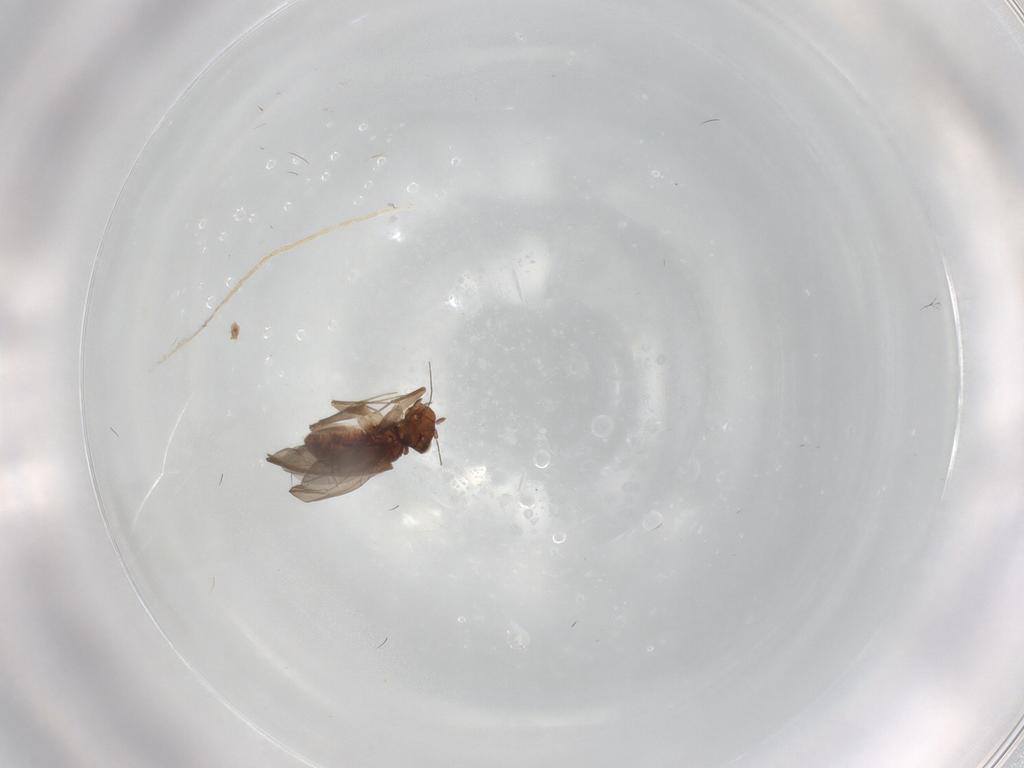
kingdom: Animalia
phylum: Arthropoda
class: Insecta
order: Psocodea
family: Lepidopsocidae
